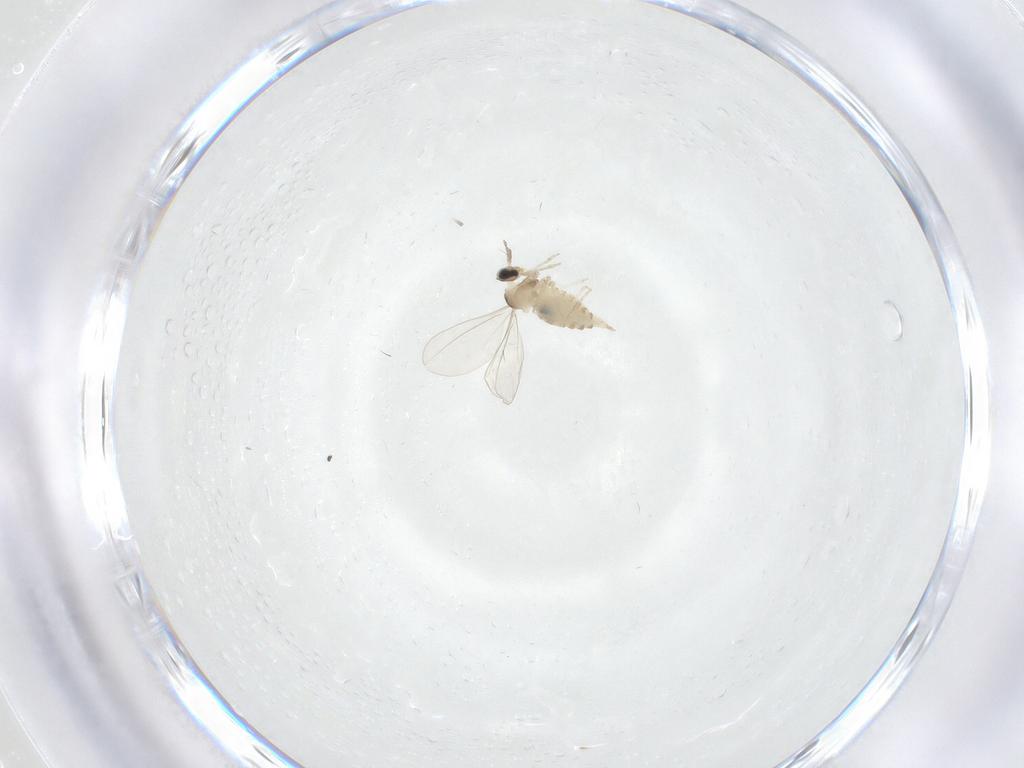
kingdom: Animalia
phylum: Arthropoda
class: Insecta
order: Diptera
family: Cecidomyiidae
